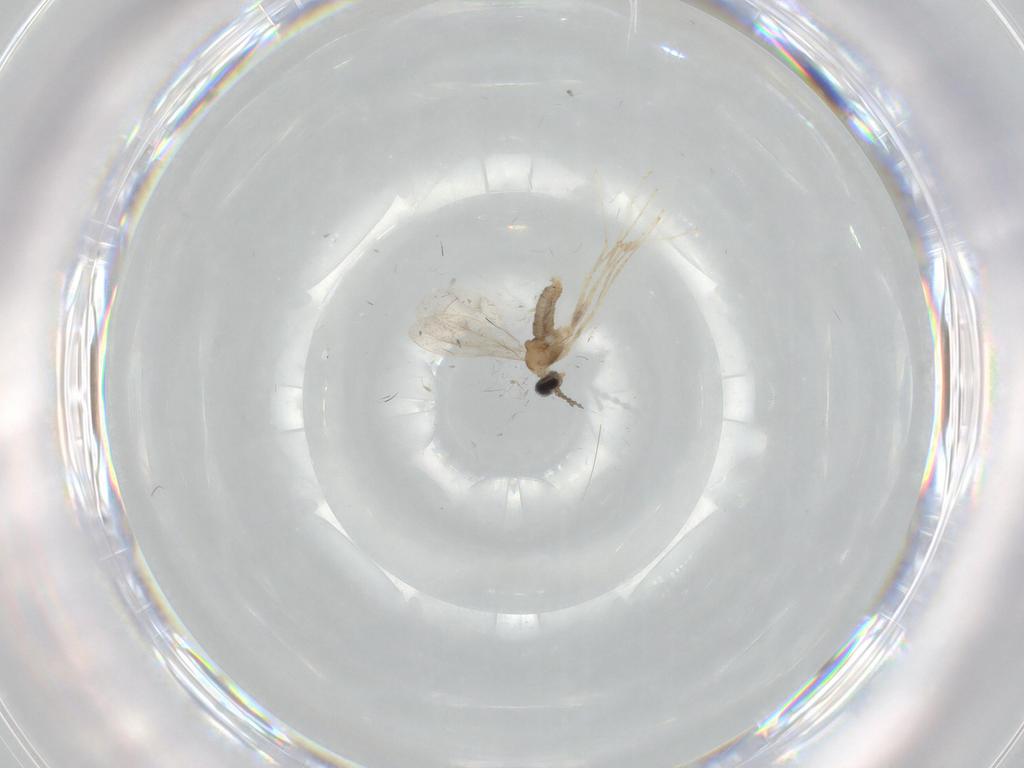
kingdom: Animalia
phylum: Arthropoda
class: Insecta
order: Diptera
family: Cecidomyiidae
